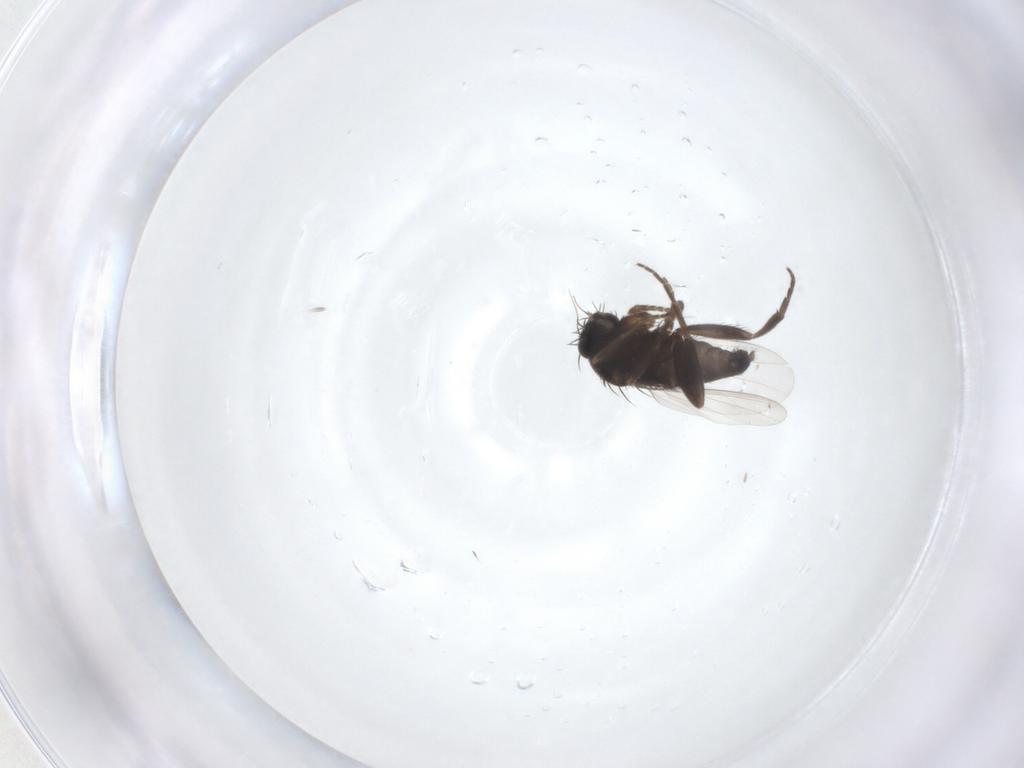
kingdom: Animalia
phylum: Arthropoda
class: Insecta
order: Diptera
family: Phoridae
